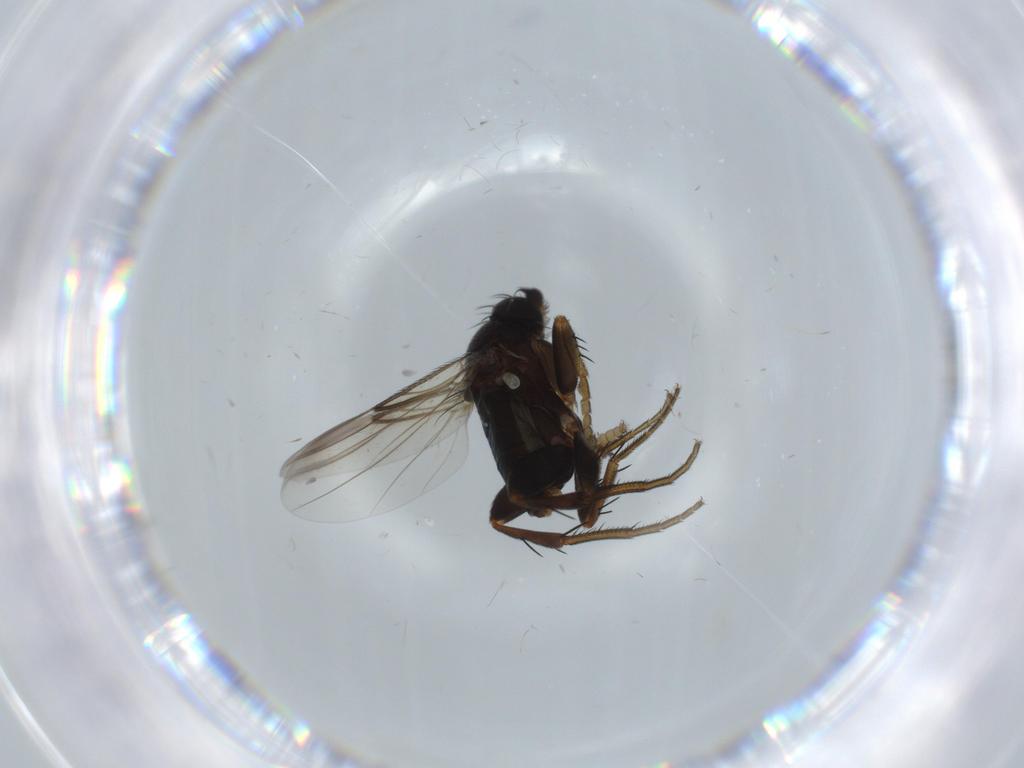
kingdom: Animalia
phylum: Arthropoda
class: Insecta
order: Diptera
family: Phoridae
